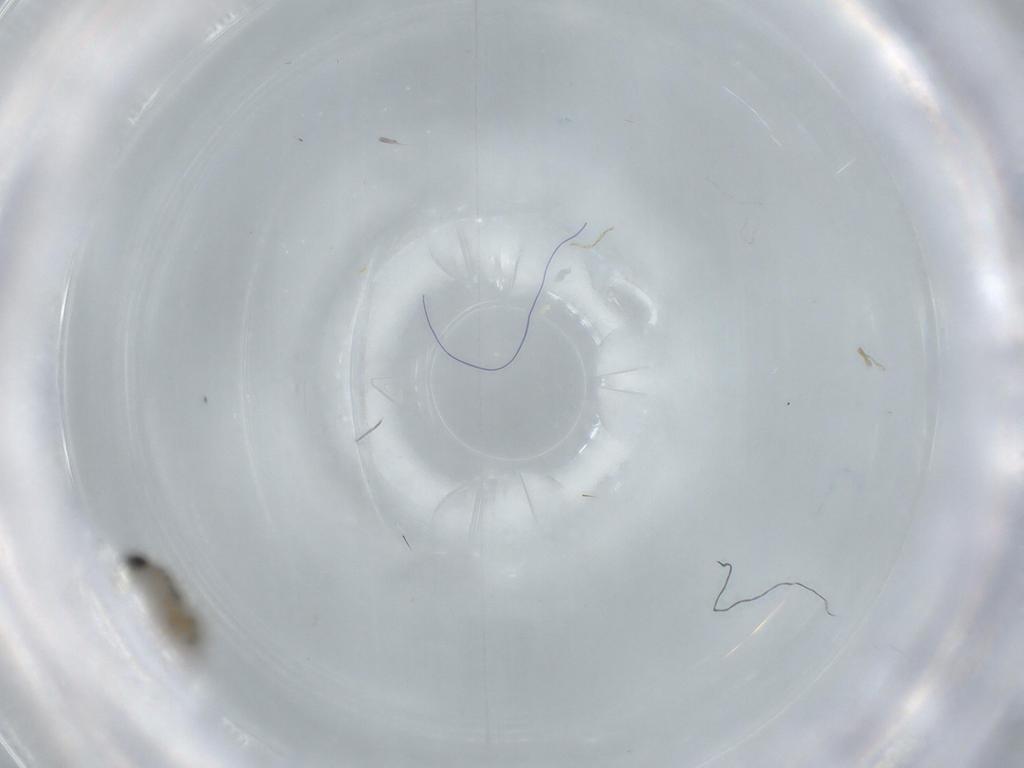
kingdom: Animalia
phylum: Arthropoda
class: Insecta
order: Diptera
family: Phoridae
